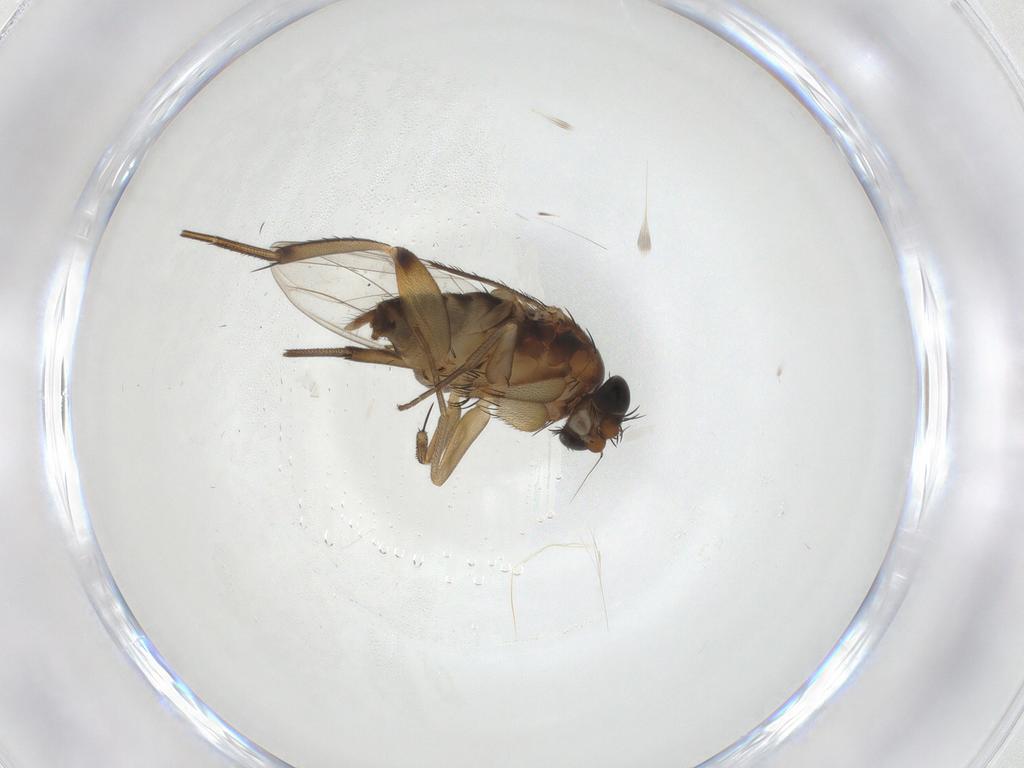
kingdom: Animalia
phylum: Arthropoda
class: Insecta
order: Diptera
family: Phoridae
